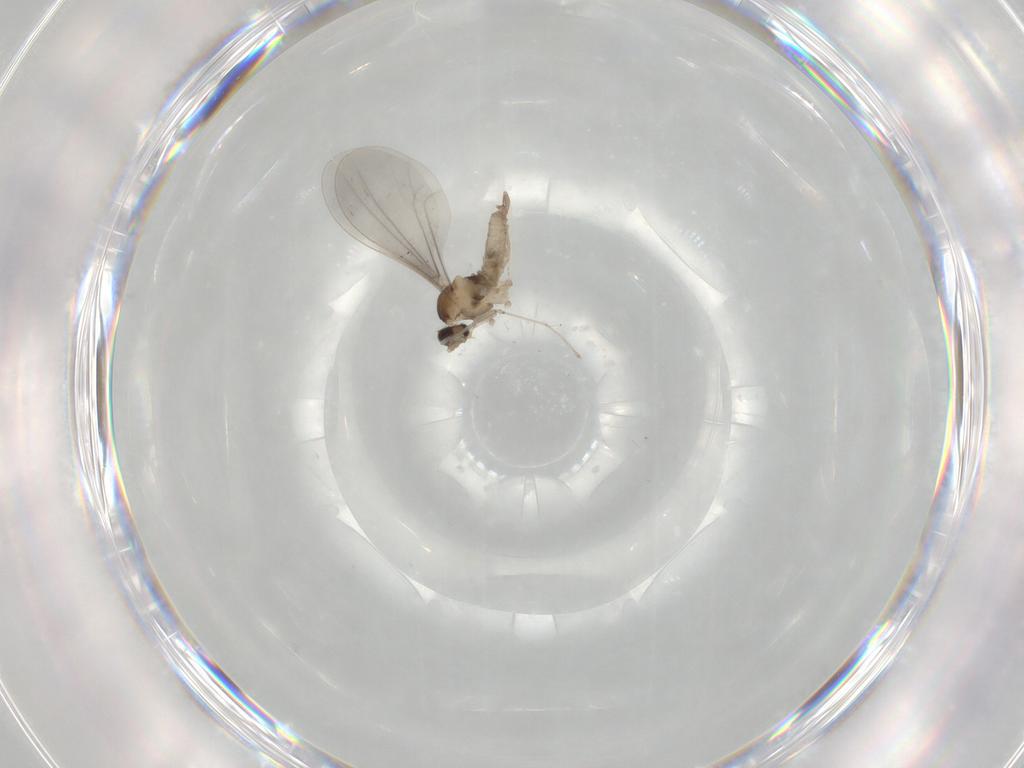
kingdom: Animalia
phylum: Arthropoda
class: Insecta
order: Diptera
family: Cecidomyiidae
